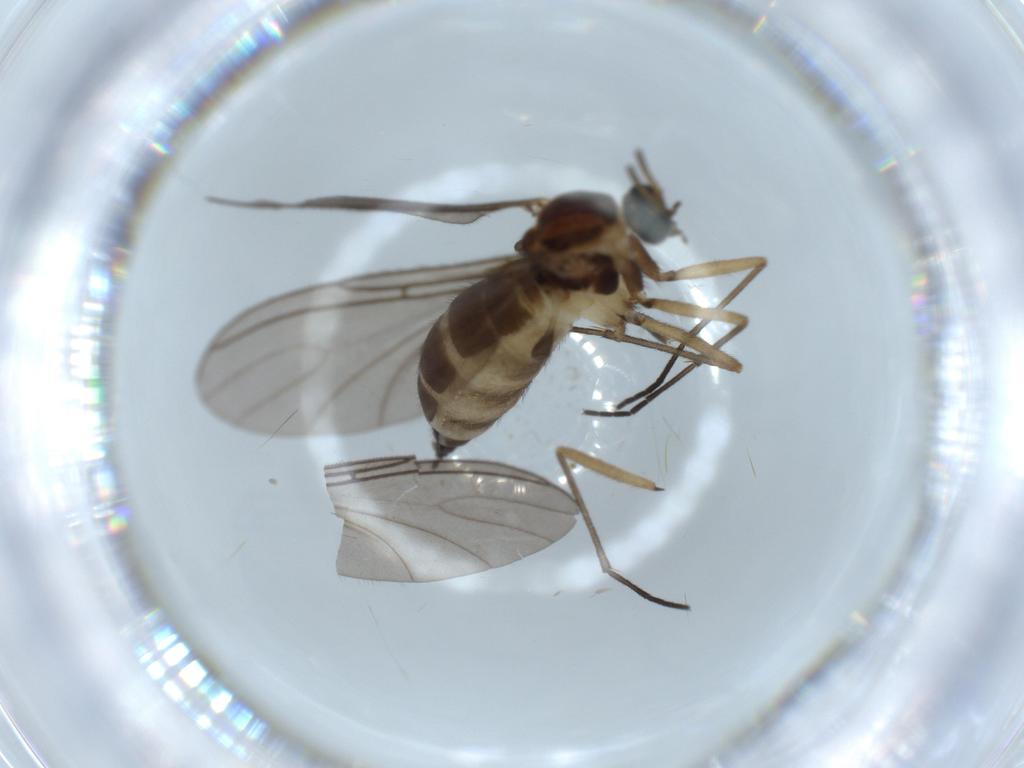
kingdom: Animalia
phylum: Arthropoda
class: Insecta
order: Diptera
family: Sciaridae
